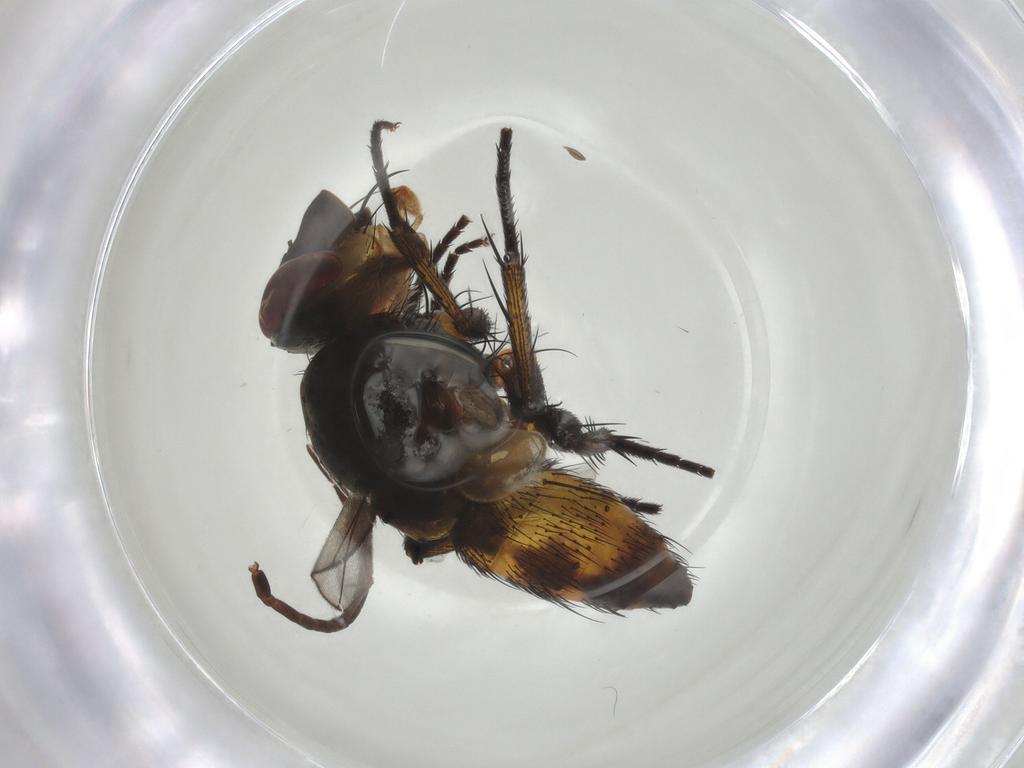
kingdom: Animalia
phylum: Arthropoda
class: Insecta
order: Diptera
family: Tachinidae
